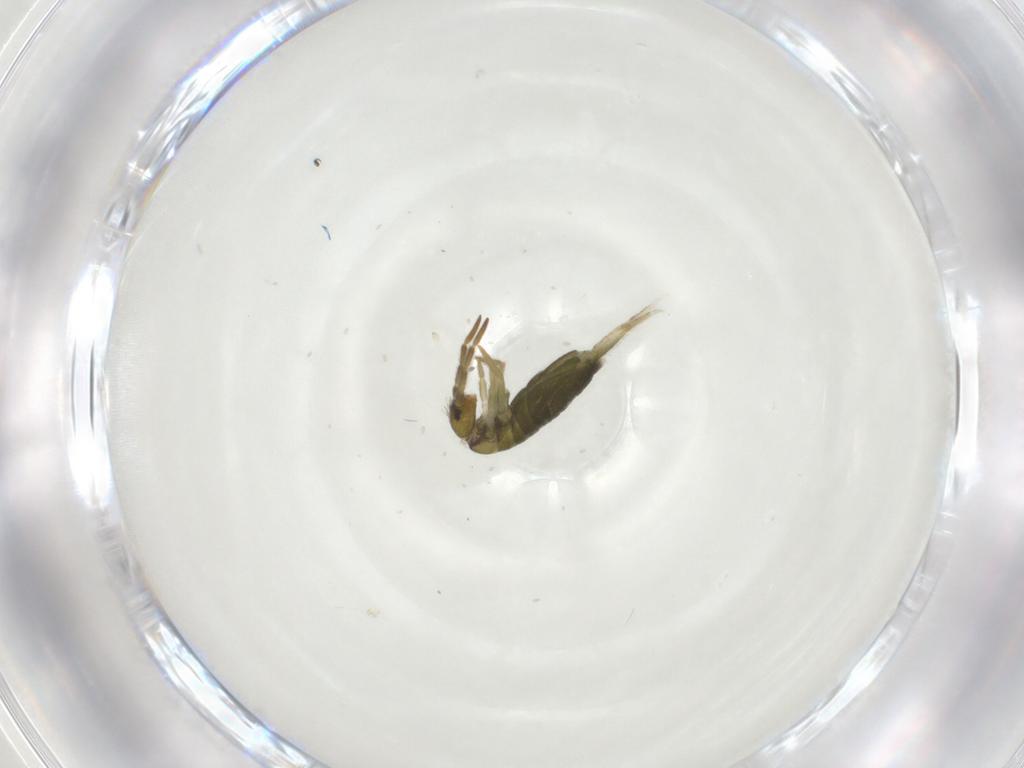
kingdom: Animalia
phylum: Arthropoda
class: Collembola
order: Entomobryomorpha
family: Entomobryidae
